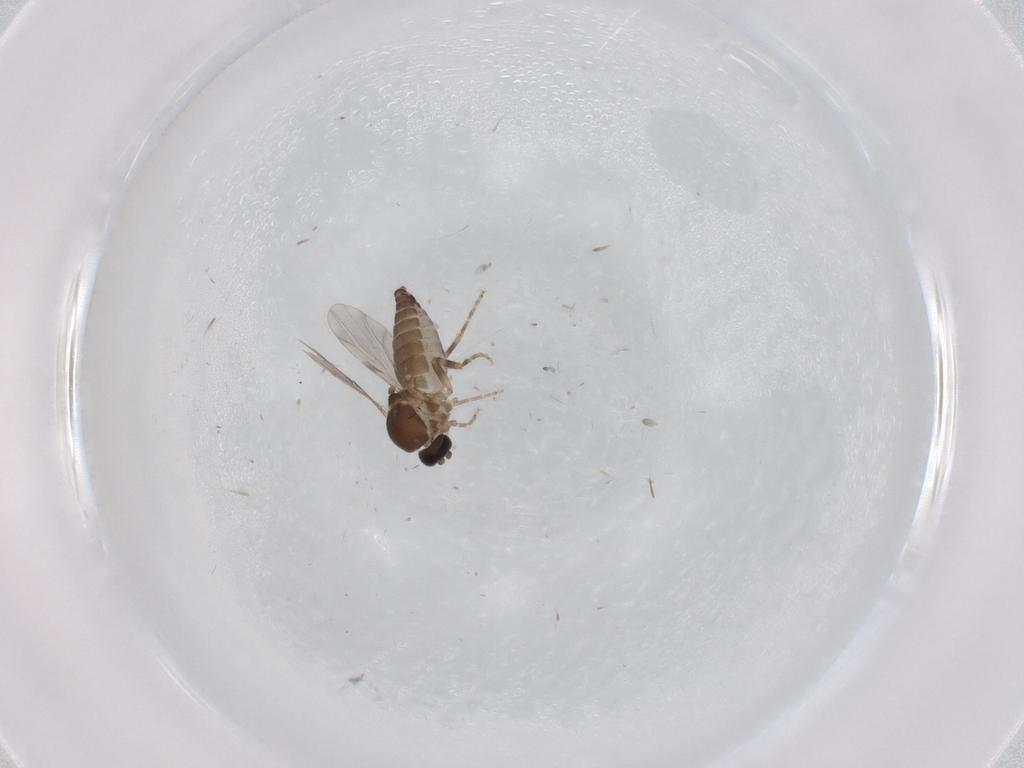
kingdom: Animalia
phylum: Arthropoda
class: Insecta
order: Diptera
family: Ceratopogonidae
